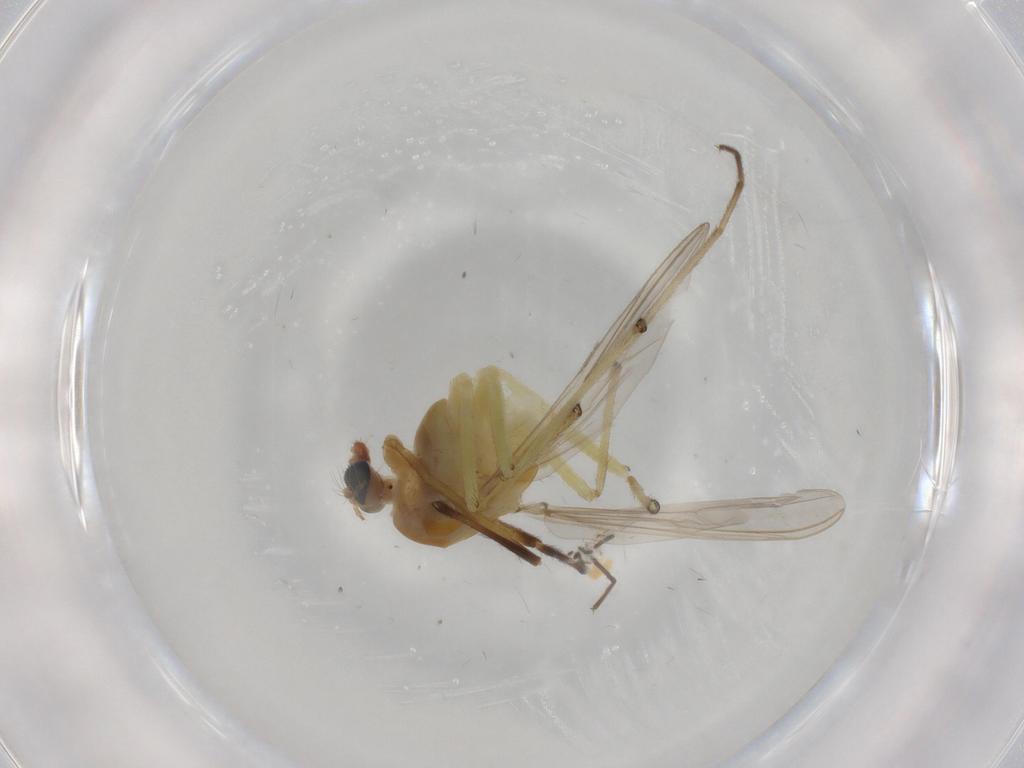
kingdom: Animalia
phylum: Arthropoda
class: Insecta
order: Diptera
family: Chironomidae
